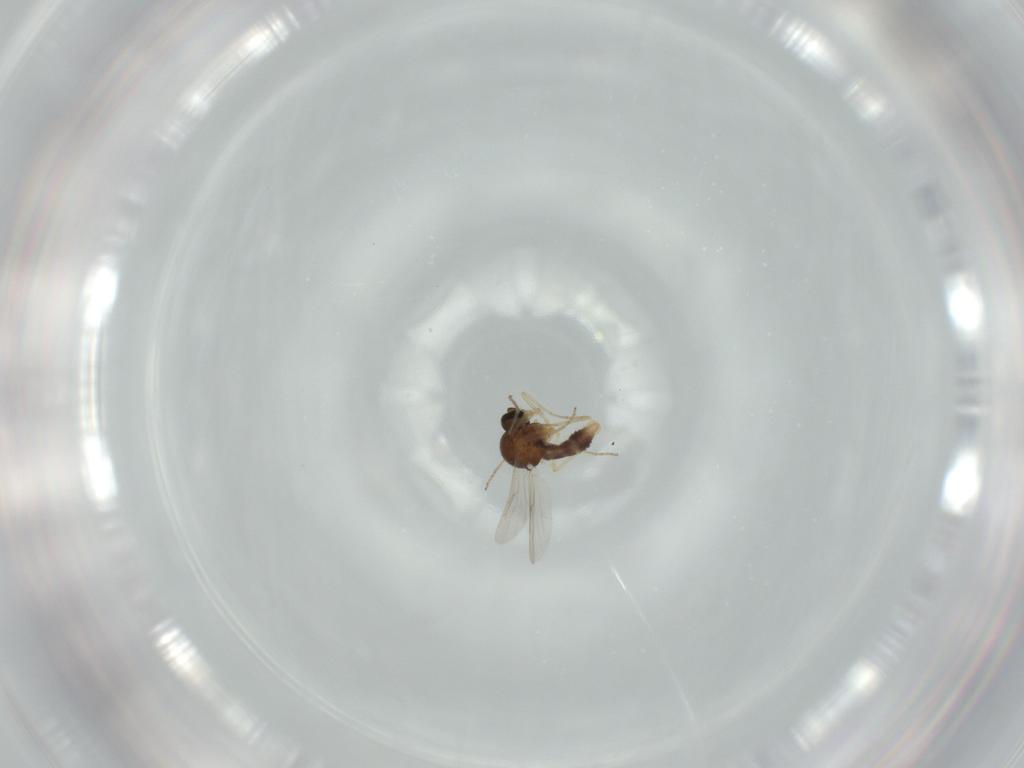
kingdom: Animalia
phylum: Arthropoda
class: Insecta
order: Diptera
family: Ceratopogonidae
